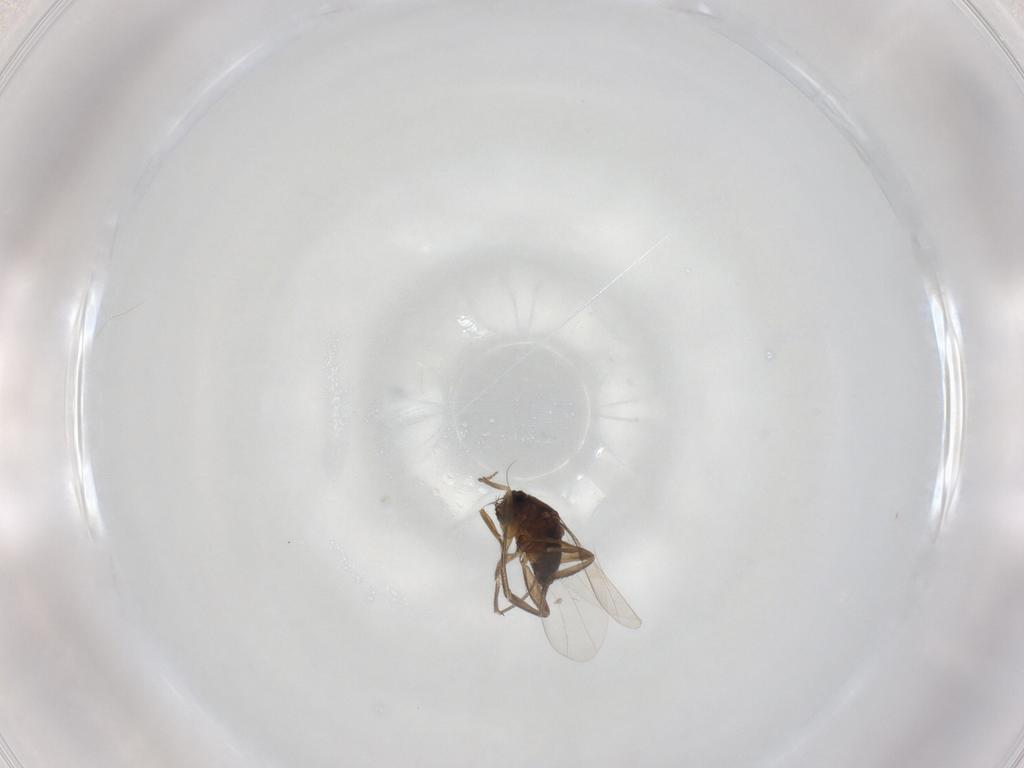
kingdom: Animalia
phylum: Arthropoda
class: Insecta
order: Diptera
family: Phoridae
